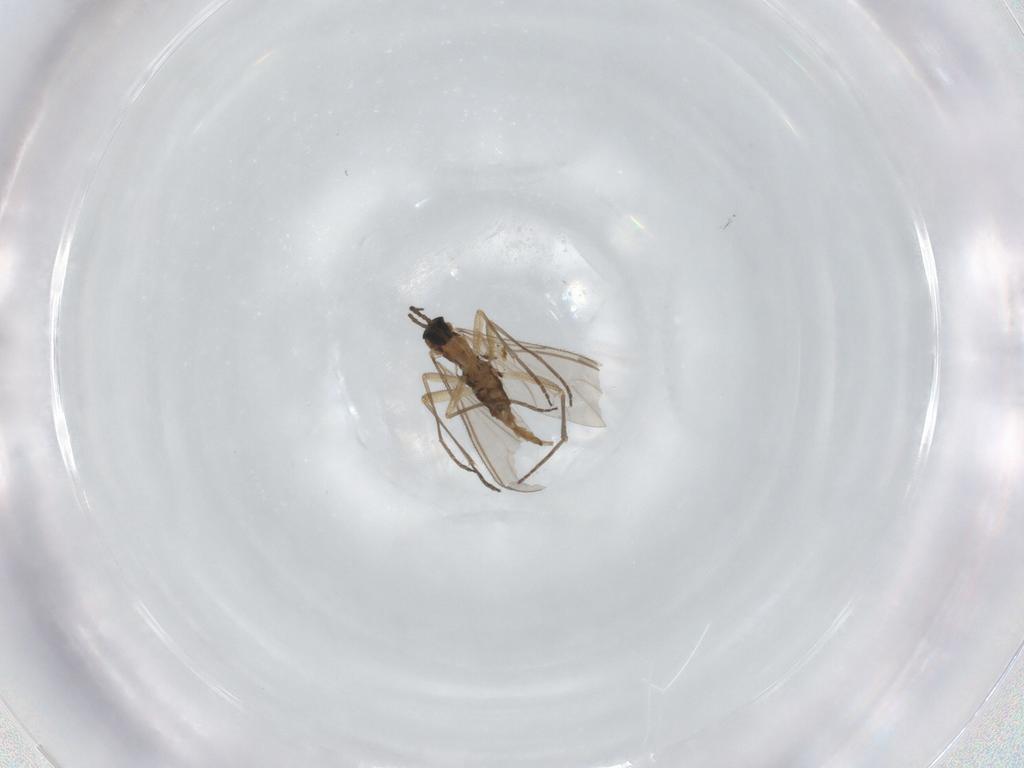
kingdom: Animalia
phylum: Arthropoda
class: Insecta
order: Diptera
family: Sciaridae
